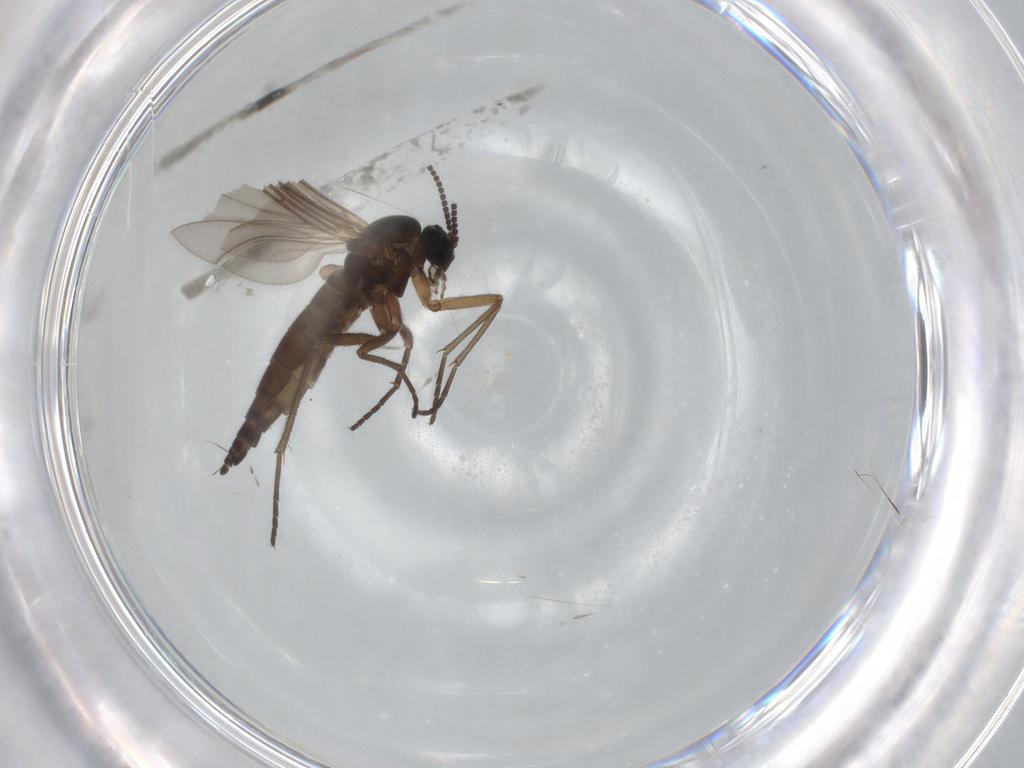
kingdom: Animalia
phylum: Arthropoda
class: Insecta
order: Diptera
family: Sciaridae
